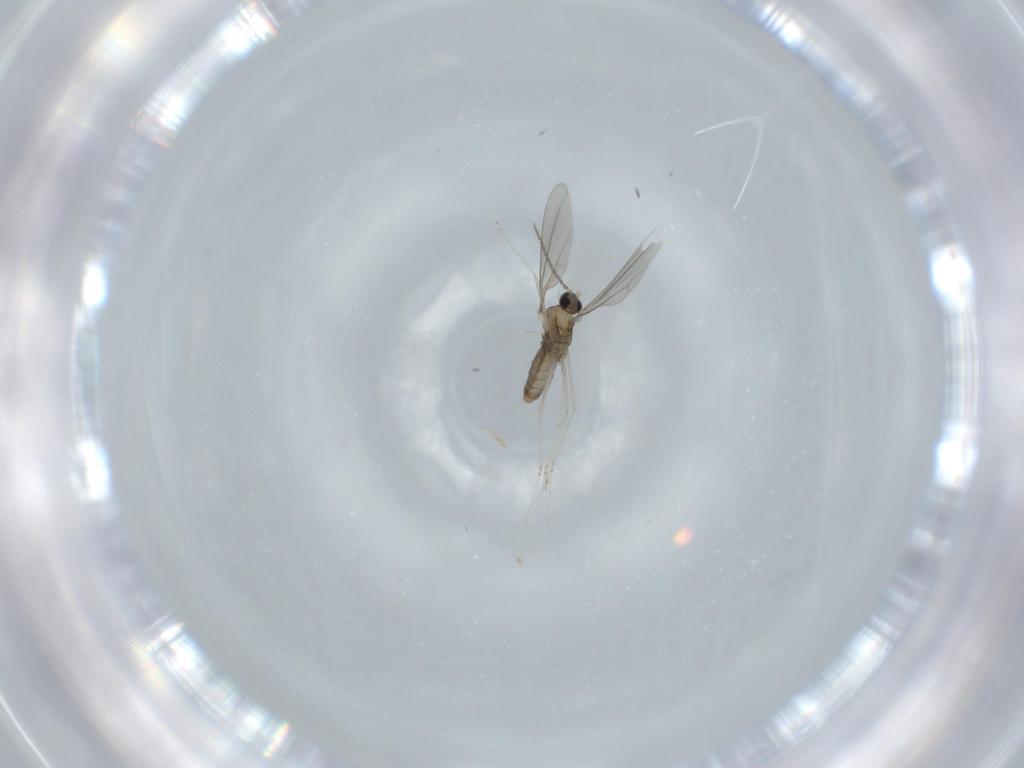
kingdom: Animalia
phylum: Arthropoda
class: Insecta
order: Diptera
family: Cecidomyiidae
